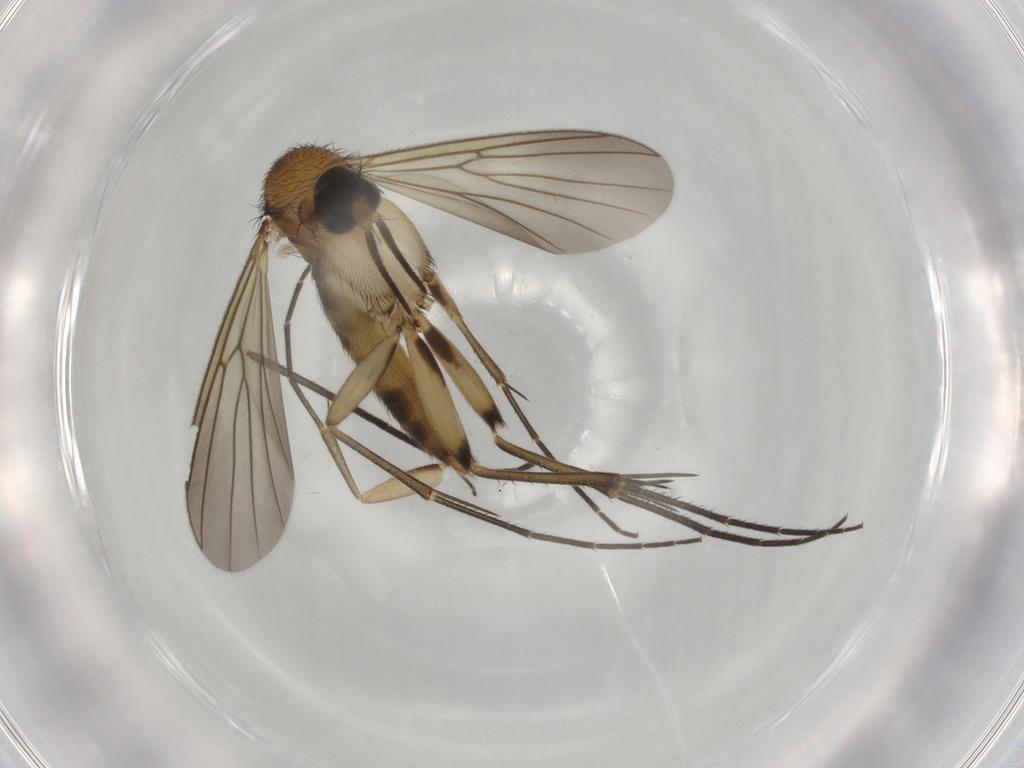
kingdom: Animalia
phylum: Arthropoda
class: Insecta
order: Diptera
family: Mycetophilidae
